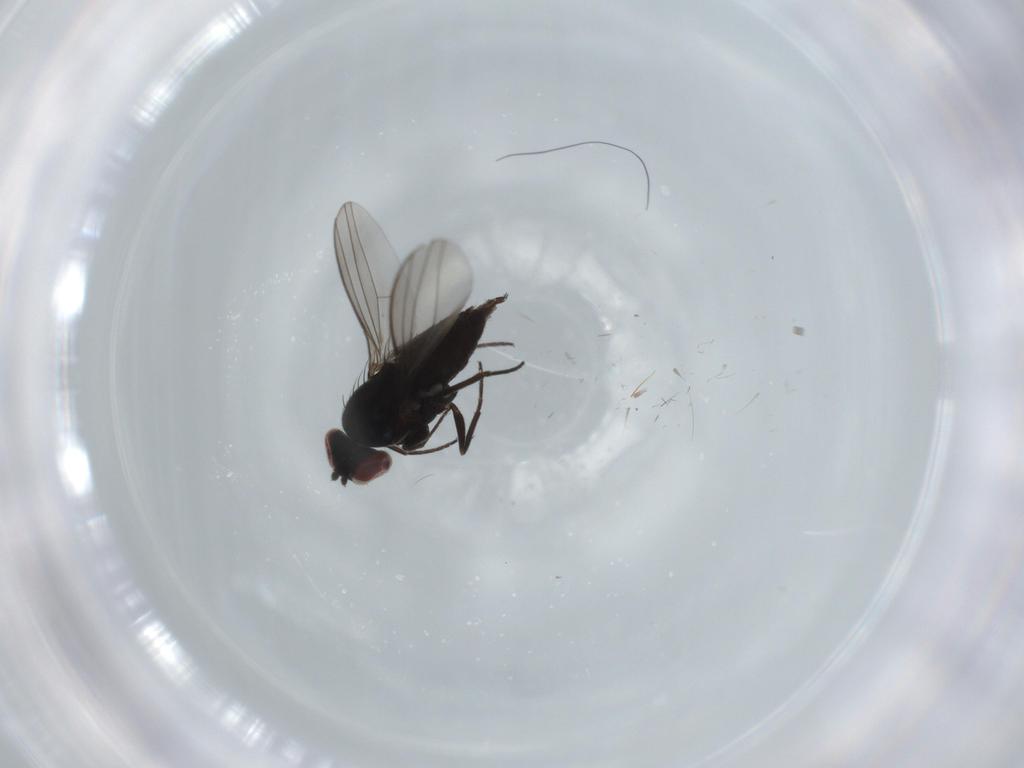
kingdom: Animalia
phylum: Arthropoda
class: Insecta
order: Diptera
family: Dolichopodidae
